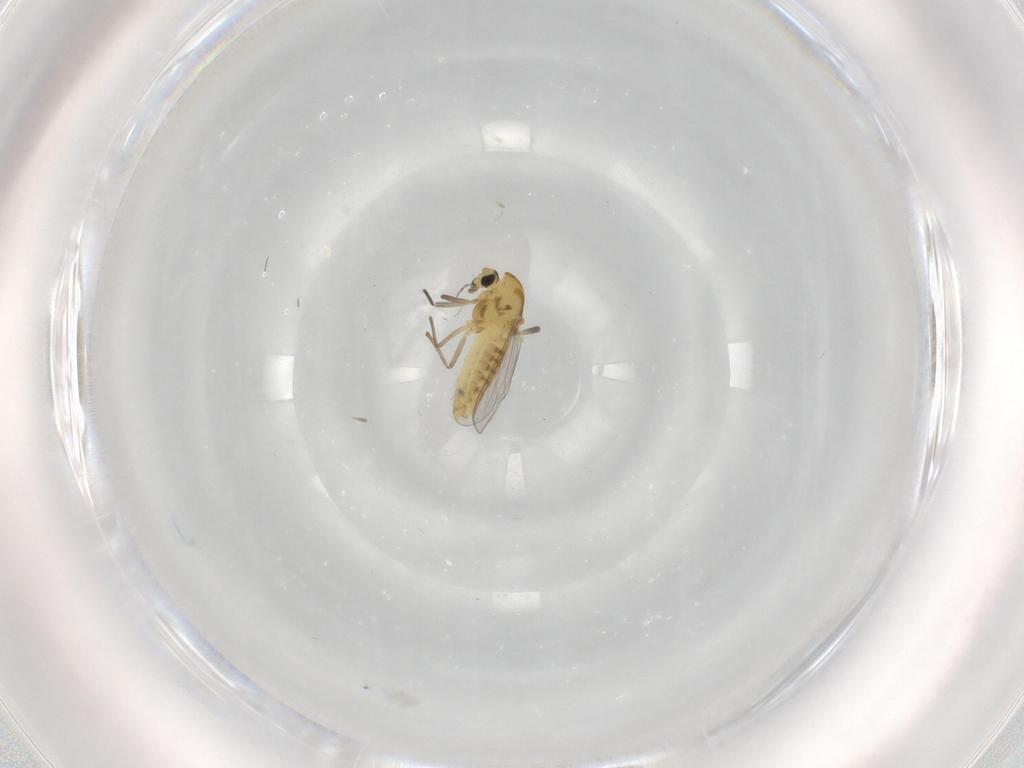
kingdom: Animalia
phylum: Arthropoda
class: Insecta
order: Diptera
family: Chironomidae
